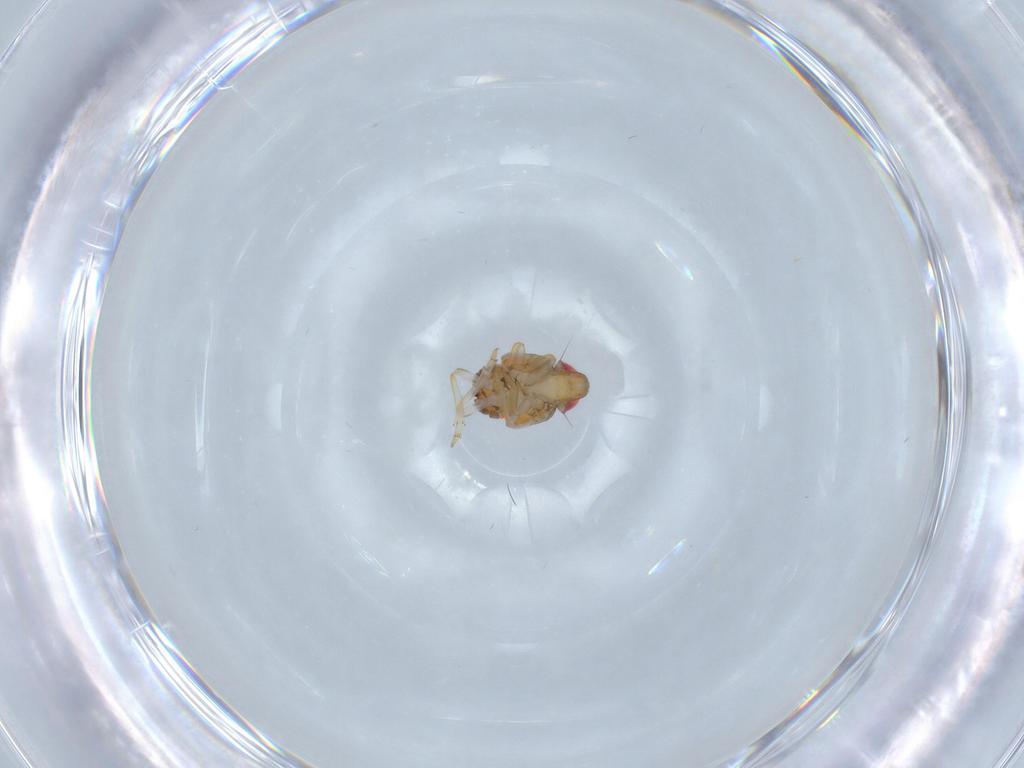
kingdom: Animalia
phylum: Arthropoda
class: Insecta
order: Hemiptera
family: Issidae
